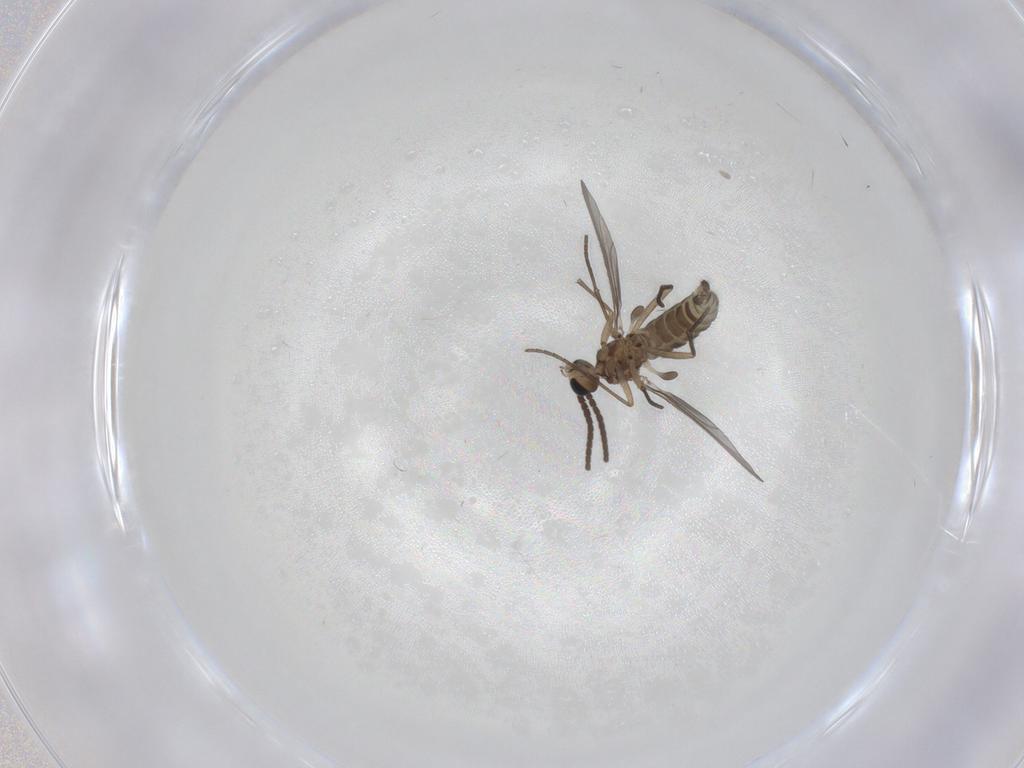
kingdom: Animalia
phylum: Arthropoda
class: Insecta
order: Diptera
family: Sciaridae
